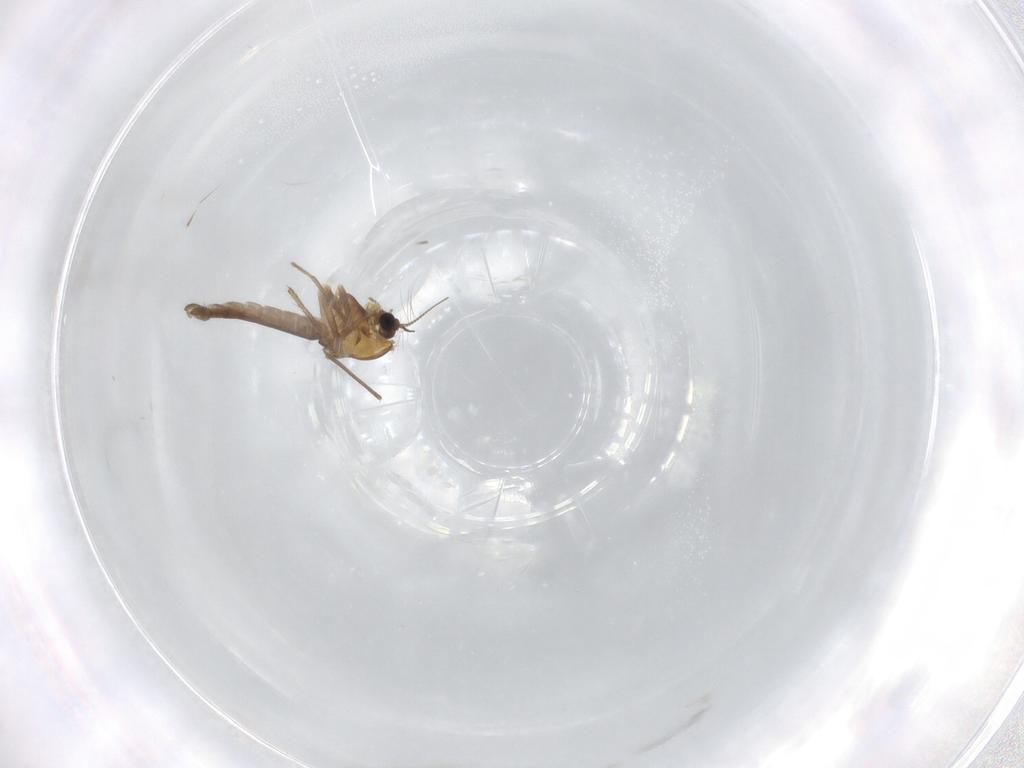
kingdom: Animalia
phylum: Arthropoda
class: Insecta
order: Diptera
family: Chironomidae
